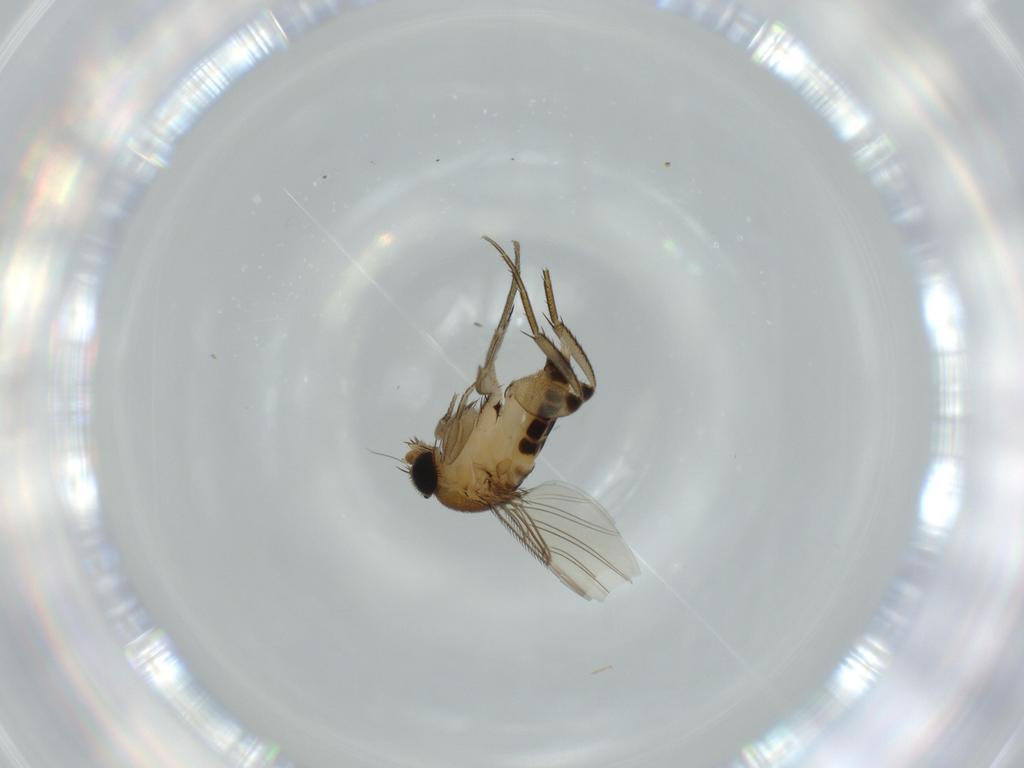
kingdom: Animalia
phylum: Arthropoda
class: Insecta
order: Diptera
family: Phoridae
